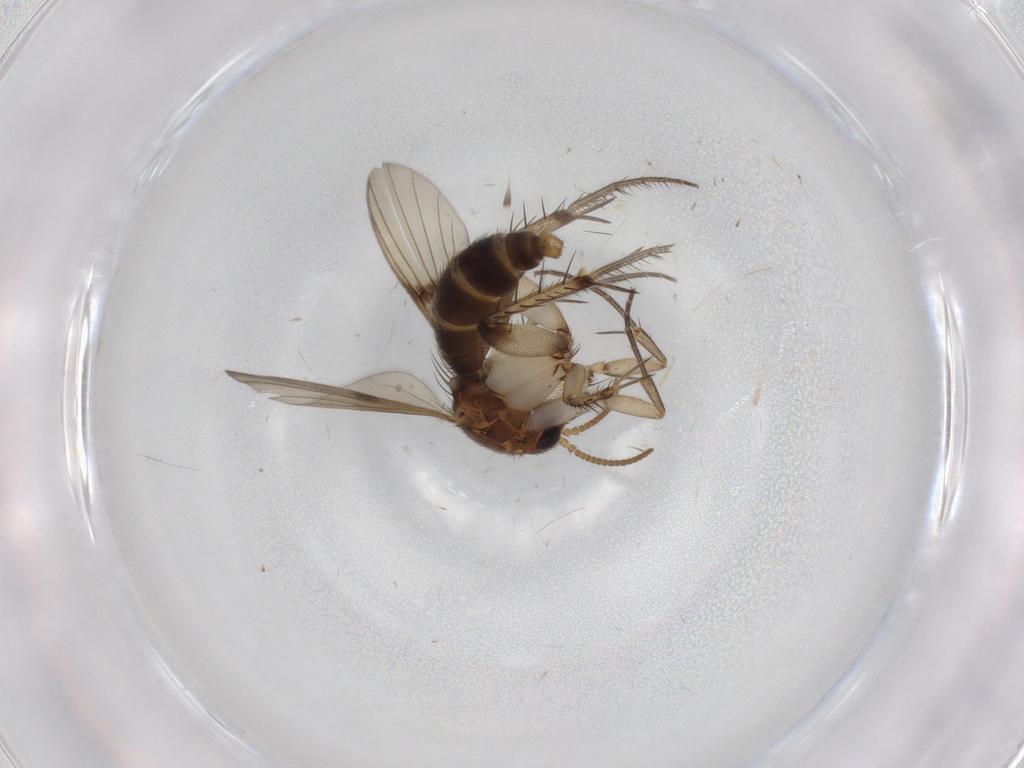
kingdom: Animalia
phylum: Arthropoda
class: Insecta
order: Diptera
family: Mycetophilidae
